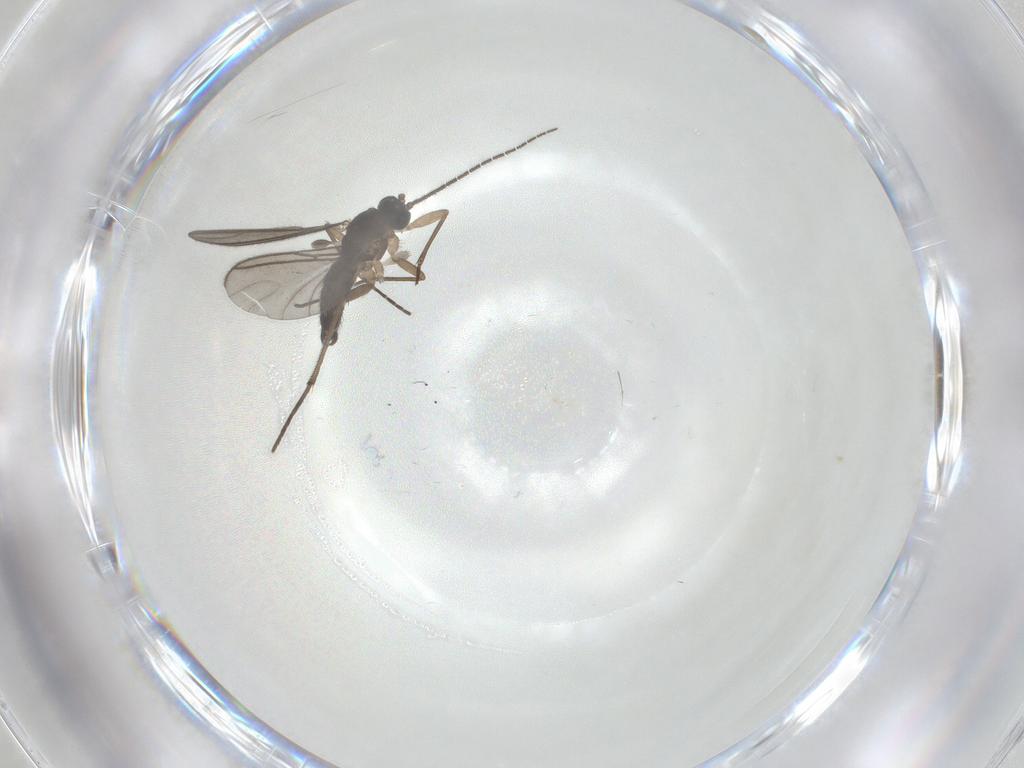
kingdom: Animalia
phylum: Arthropoda
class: Insecta
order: Diptera
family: Sciaridae
